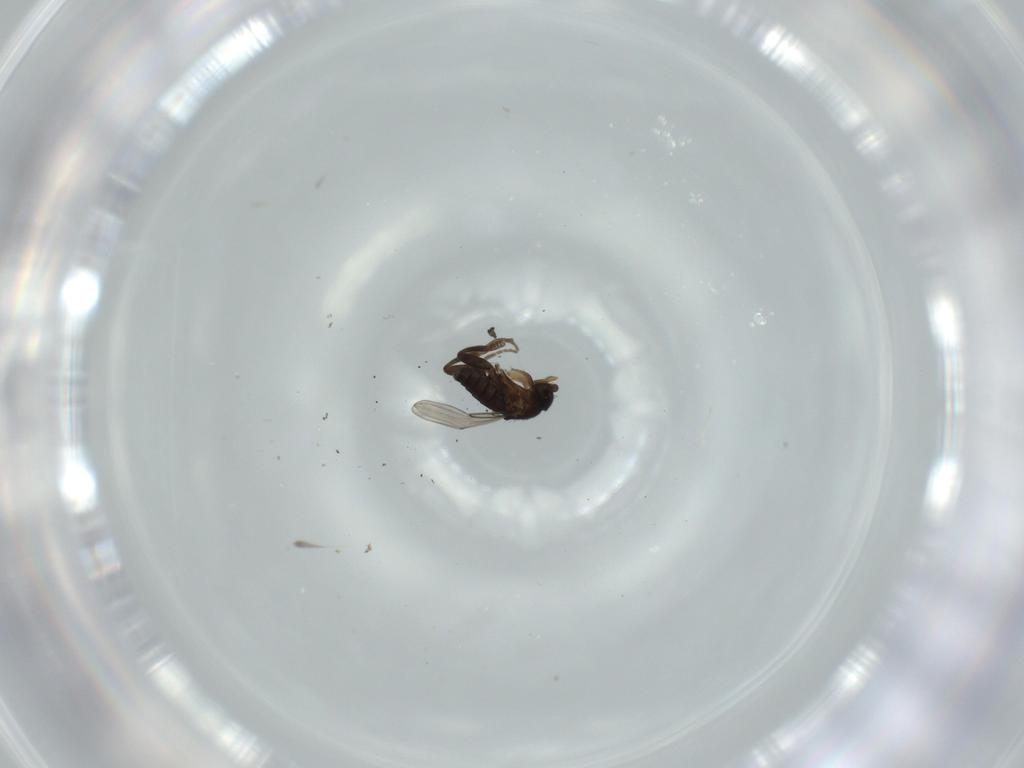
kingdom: Animalia
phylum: Arthropoda
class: Insecta
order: Diptera
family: Phoridae
